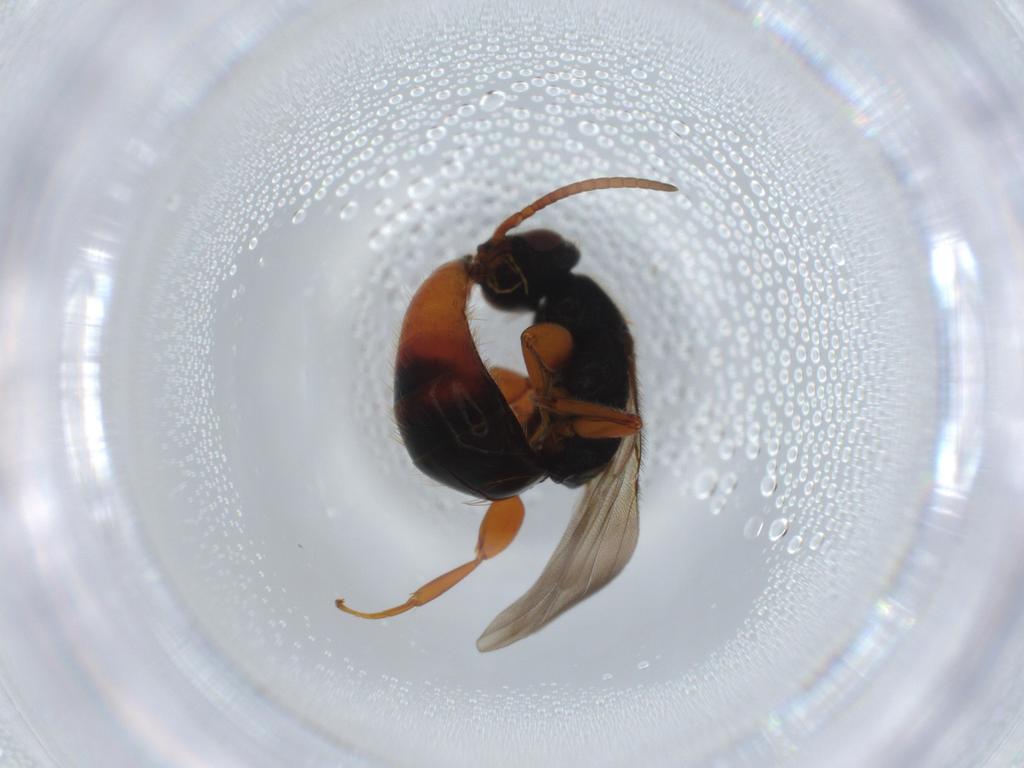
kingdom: Animalia
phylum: Arthropoda
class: Insecta
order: Hymenoptera
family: Bethylidae
